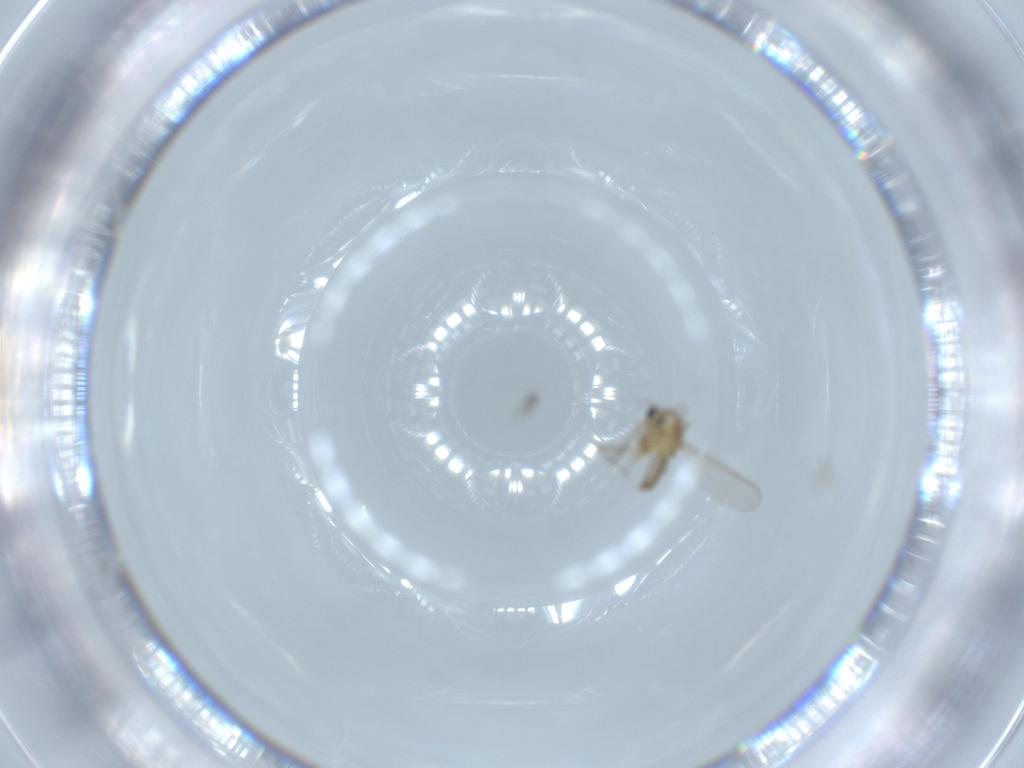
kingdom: Animalia
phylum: Arthropoda
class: Insecta
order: Diptera
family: Chironomidae
